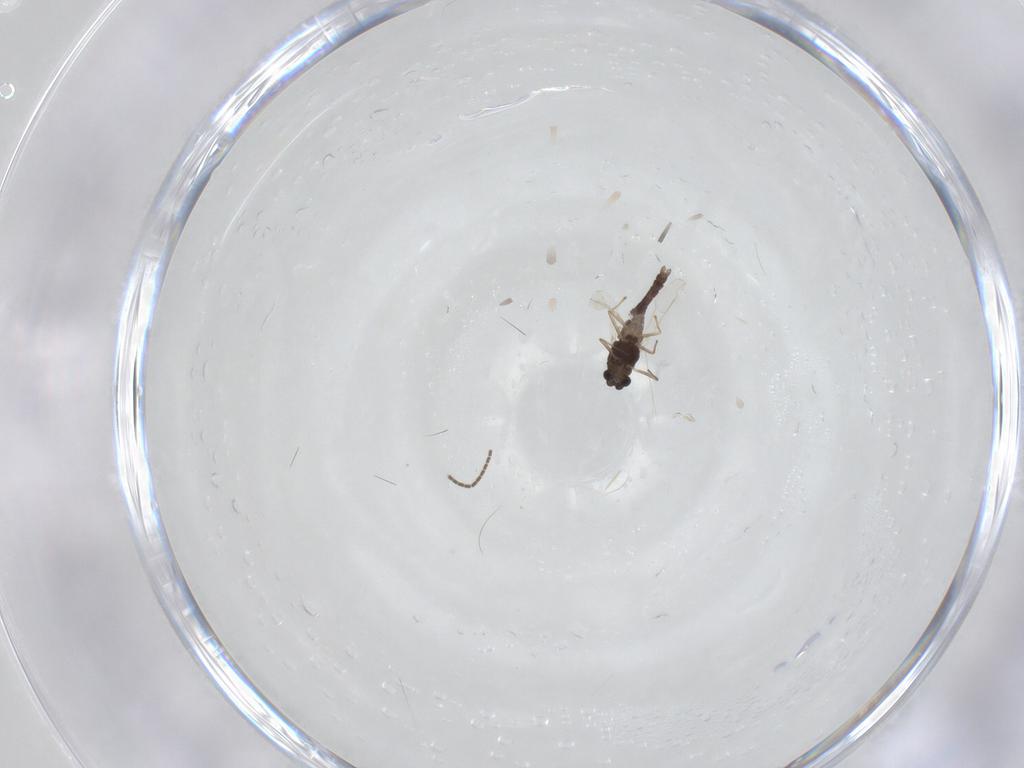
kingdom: Animalia
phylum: Arthropoda
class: Insecta
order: Diptera
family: Chironomidae
